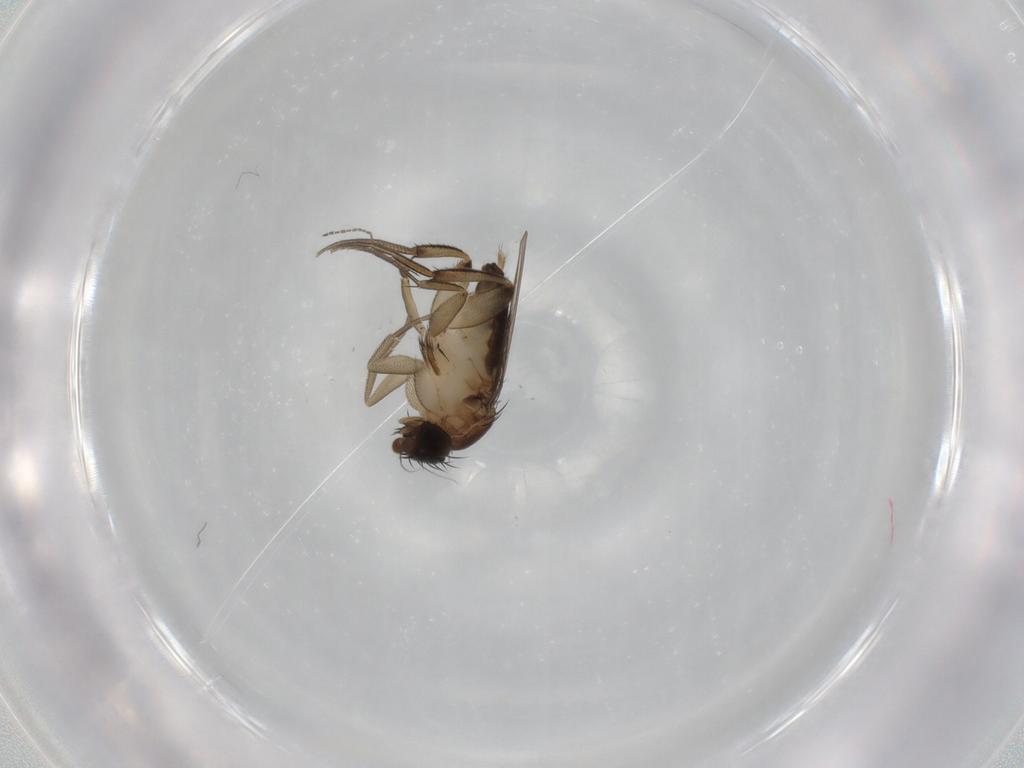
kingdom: Animalia
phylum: Arthropoda
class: Insecta
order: Diptera
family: Phoridae
